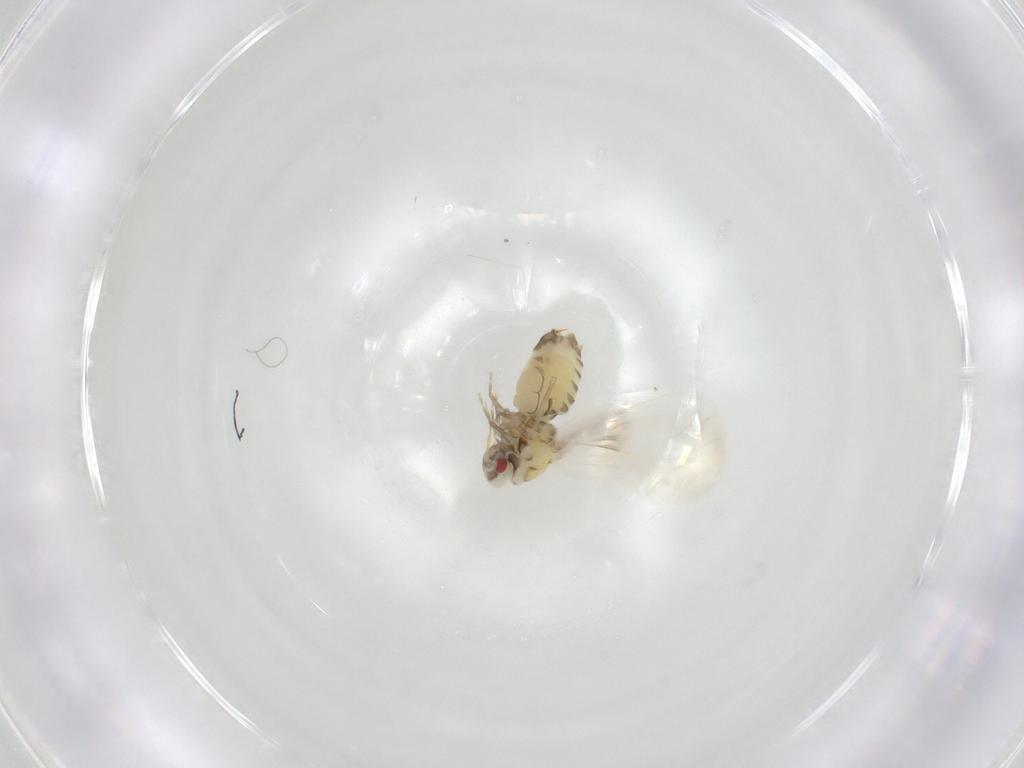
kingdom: Animalia
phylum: Arthropoda
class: Insecta
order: Hemiptera
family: Aleyrodidae
